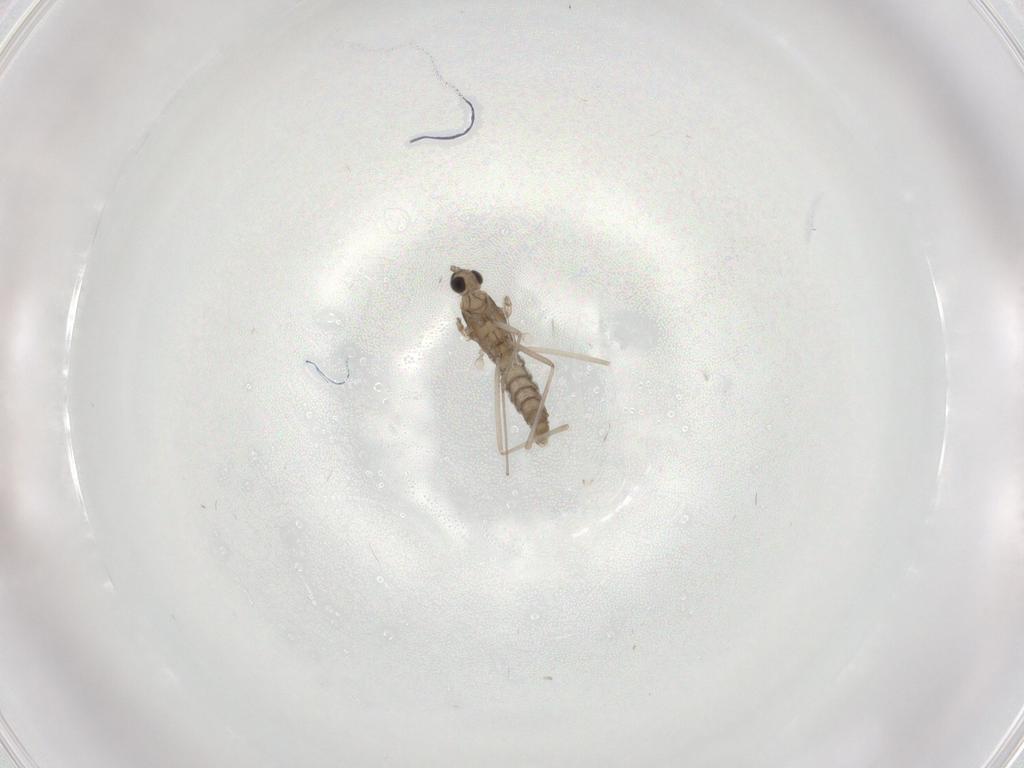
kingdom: Animalia
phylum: Arthropoda
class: Insecta
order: Diptera
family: Cecidomyiidae
